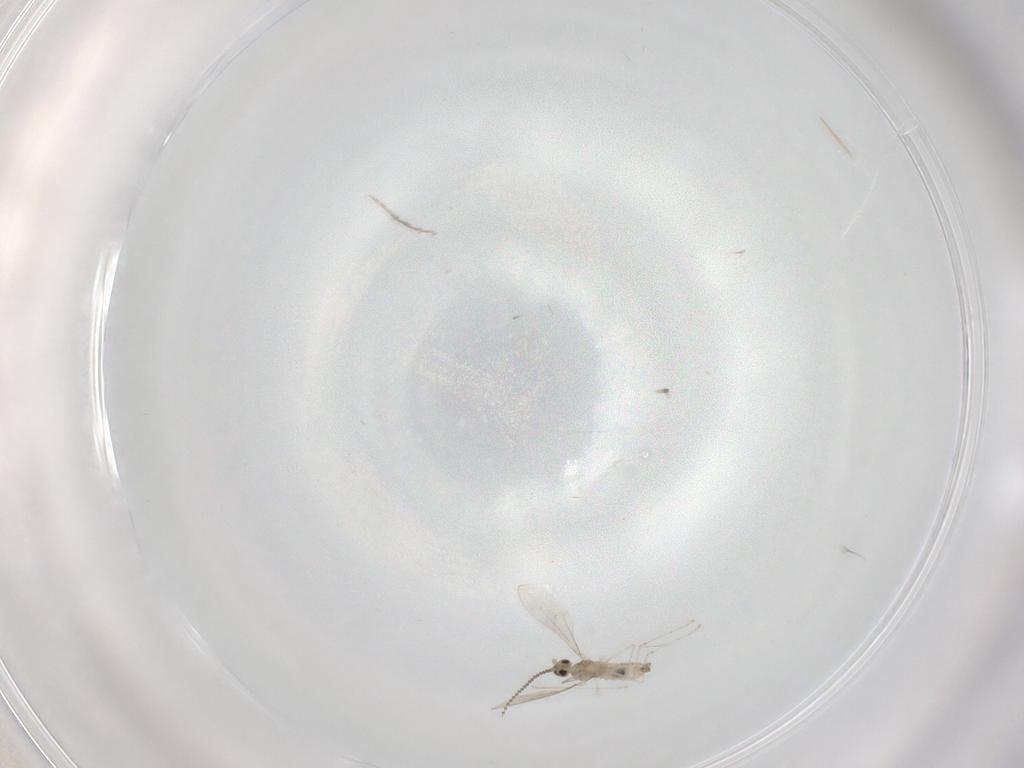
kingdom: Animalia
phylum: Arthropoda
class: Insecta
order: Diptera
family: Cecidomyiidae
